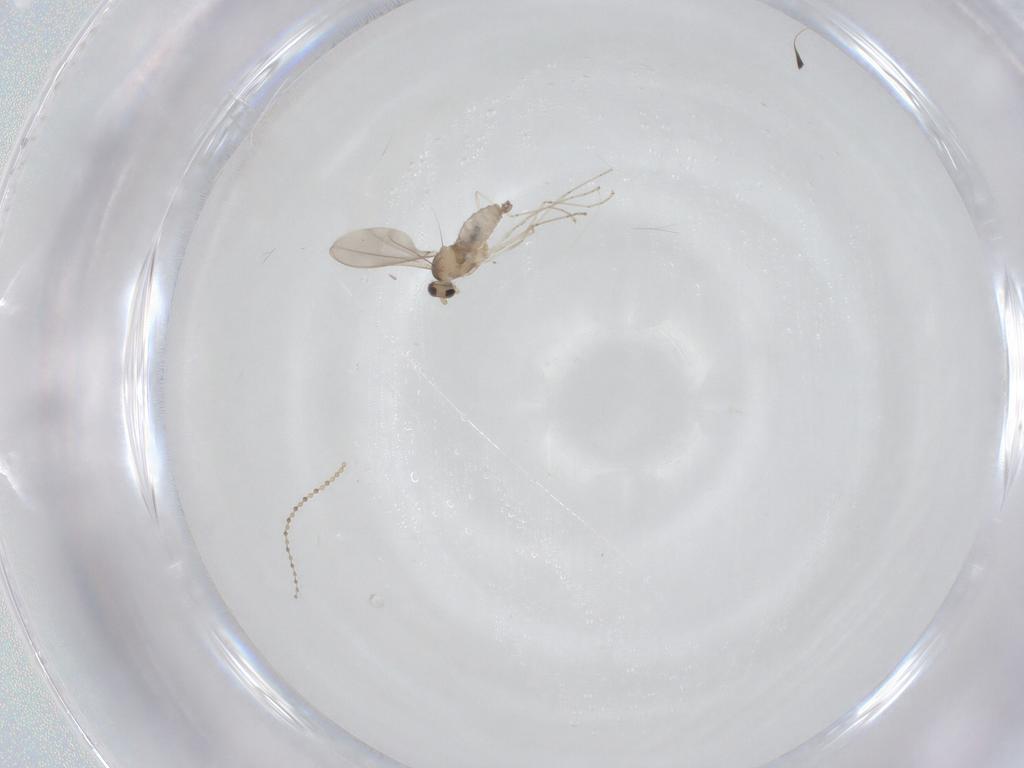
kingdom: Animalia
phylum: Arthropoda
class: Insecta
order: Diptera
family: Cecidomyiidae
